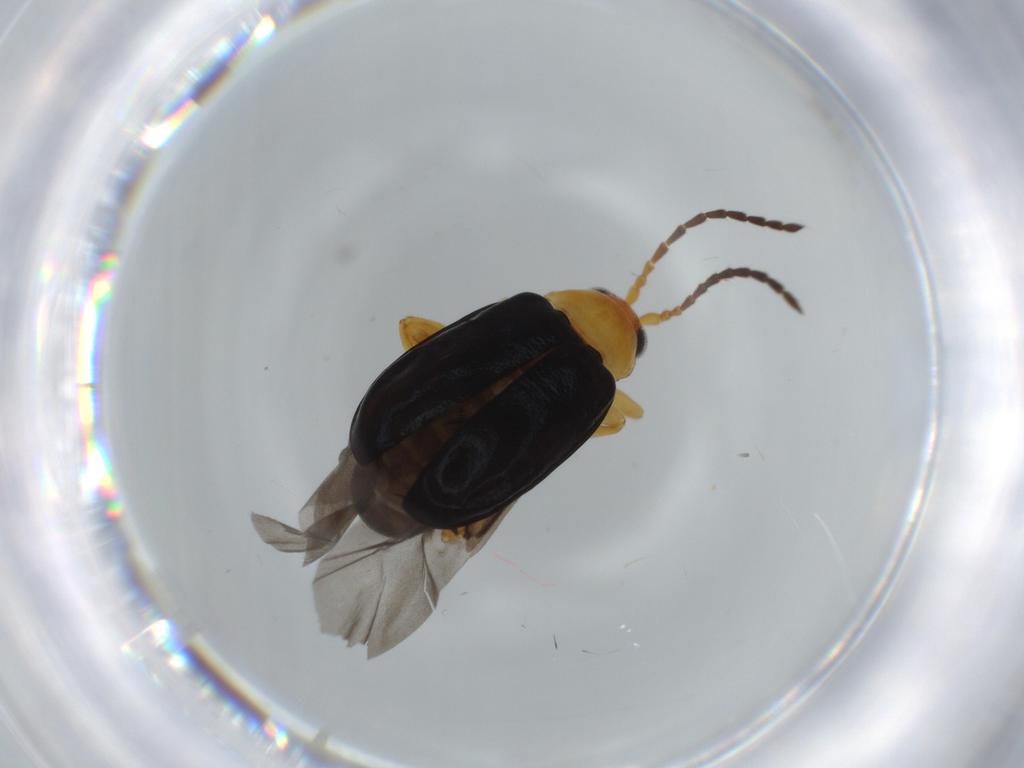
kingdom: Animalia
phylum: Arthropoda
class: Insecta
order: Coleoptera
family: Chrysomelidae
